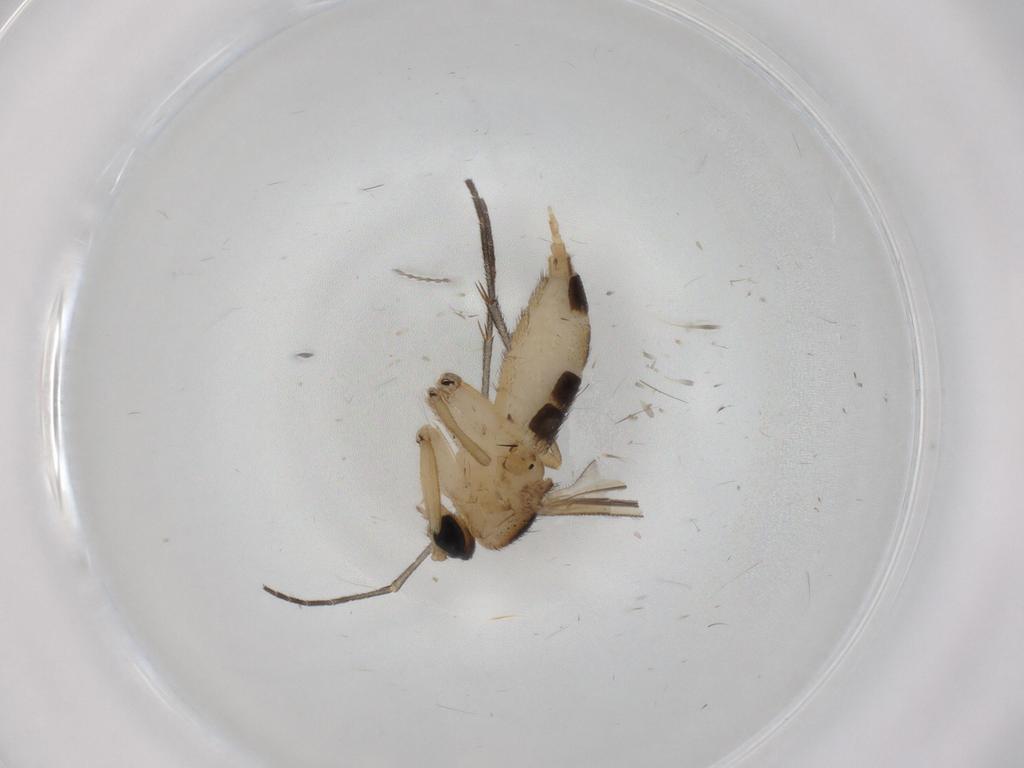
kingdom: Animalia
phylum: Arthropoda
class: Insecta
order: Diptera
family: Sciaridae
